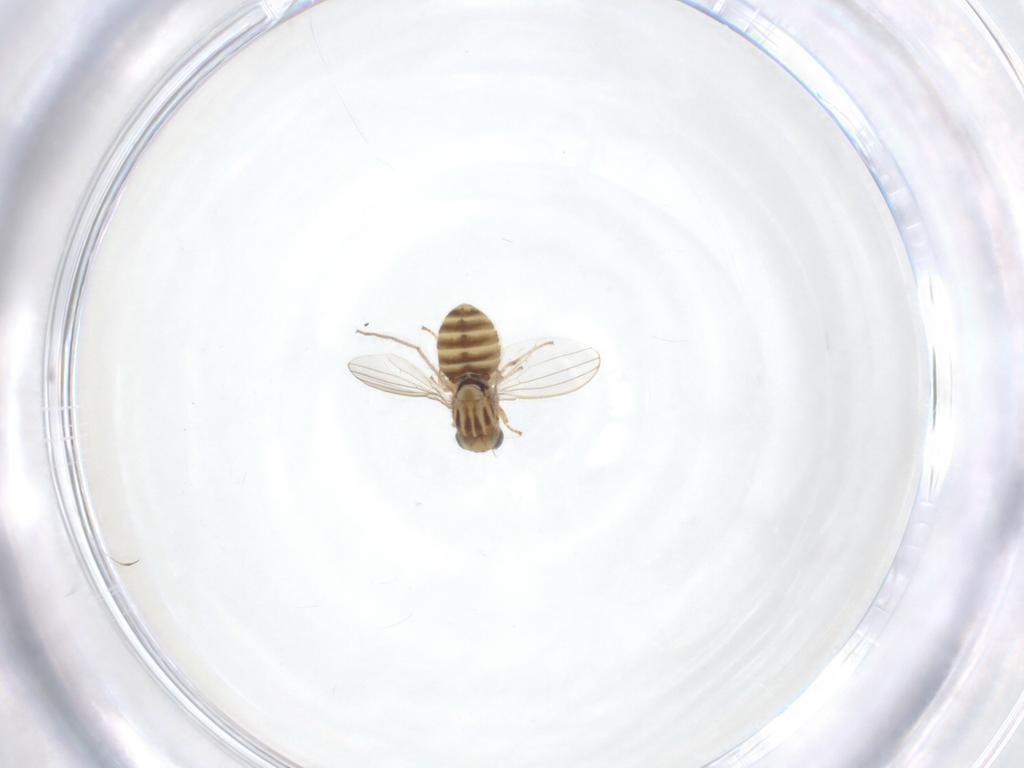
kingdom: Animalia
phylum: Arthropoda
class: Insecta
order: Diptera
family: Chyromyidae
